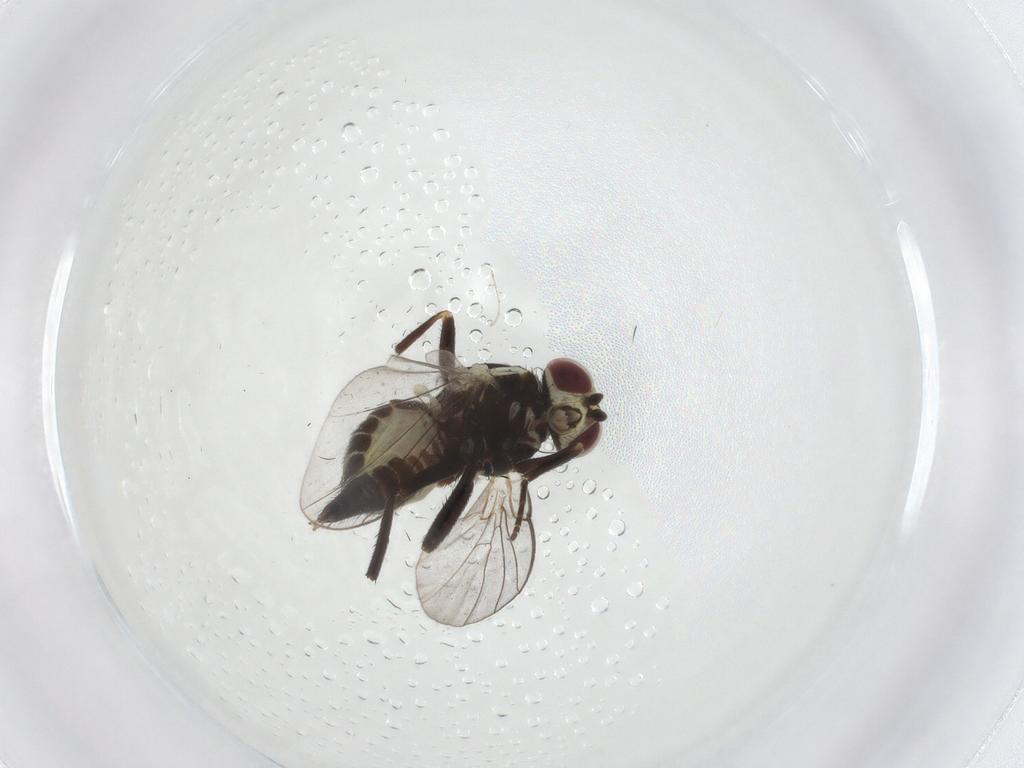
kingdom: Animalia
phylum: Arthropoda
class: Insecta
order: Diptera
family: Agromyzidae
